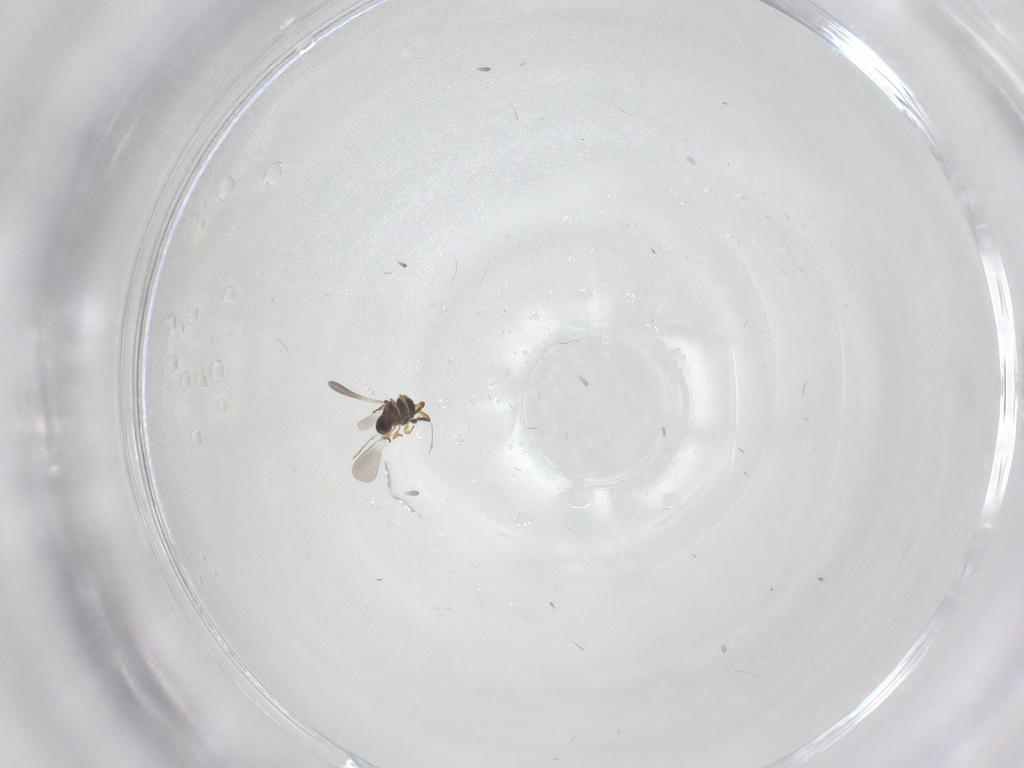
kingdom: Animalia
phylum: Arthropoda
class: Insecta
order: Hymenoptera
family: Platygastridae
